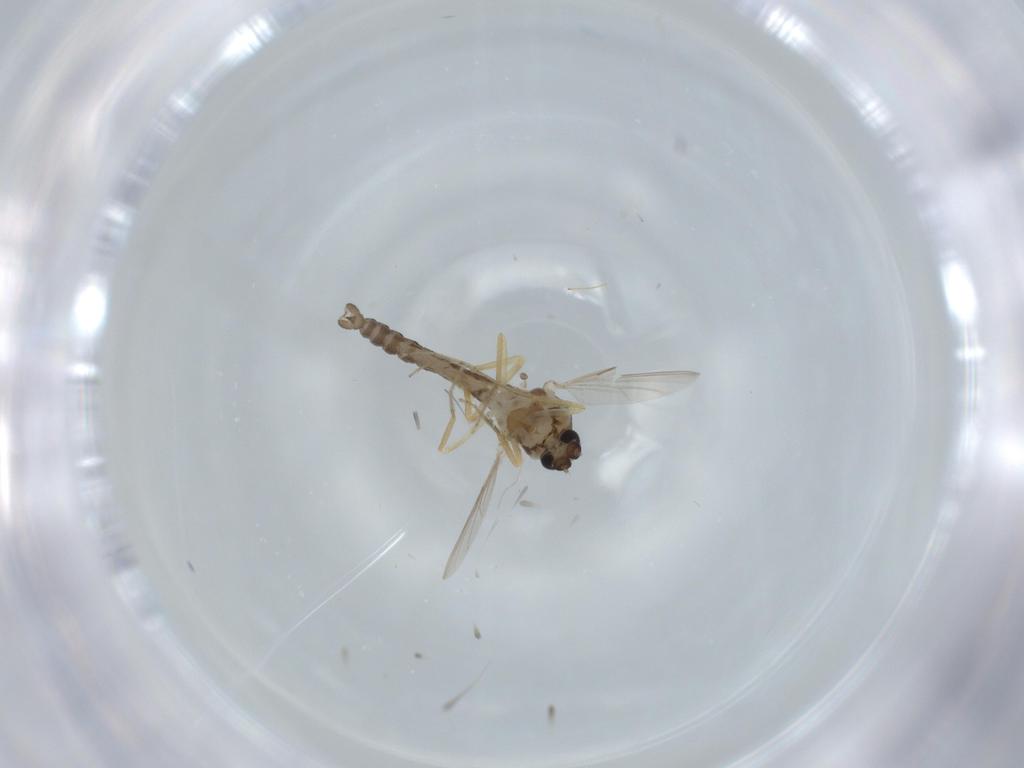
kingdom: Animalia
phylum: Arthropoda
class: Insecta
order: Diptera
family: Ceratopogonidae
